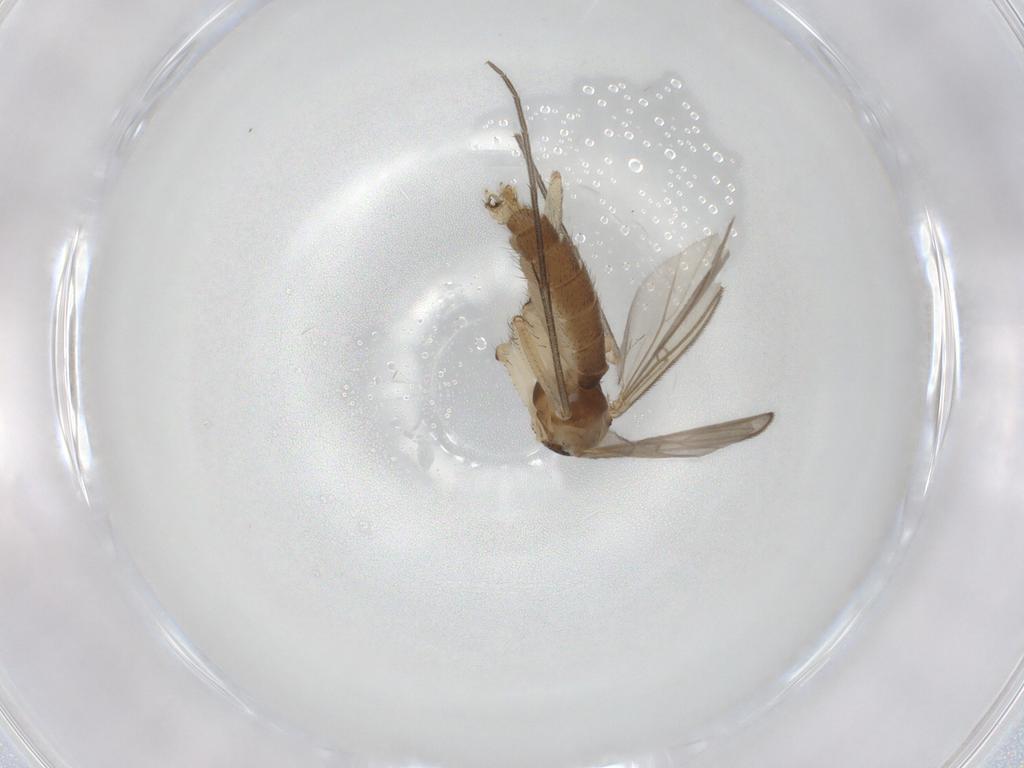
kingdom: Animalia
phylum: Arthropoda
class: Insecta
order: Diptera
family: Mycetophilidae
